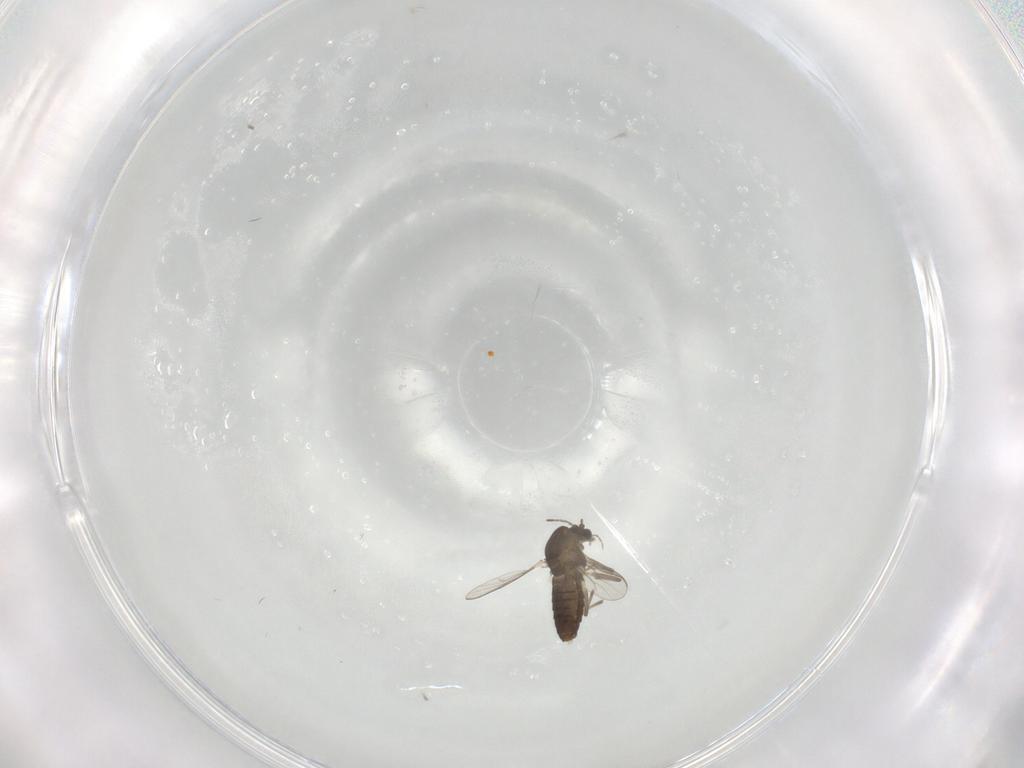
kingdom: Animalia
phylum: Arthropoda
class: Insecta
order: Diptera
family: Chironomidae
